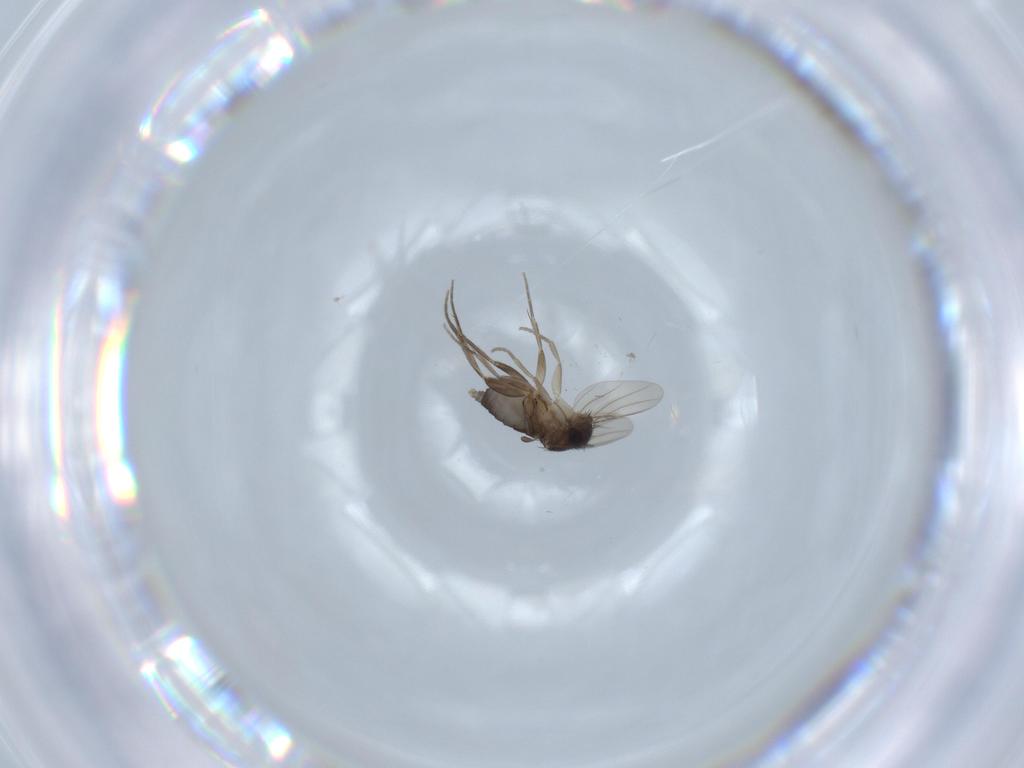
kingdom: Animalia
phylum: Arthropoda
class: Insecta
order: Diptera
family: Phoridae
